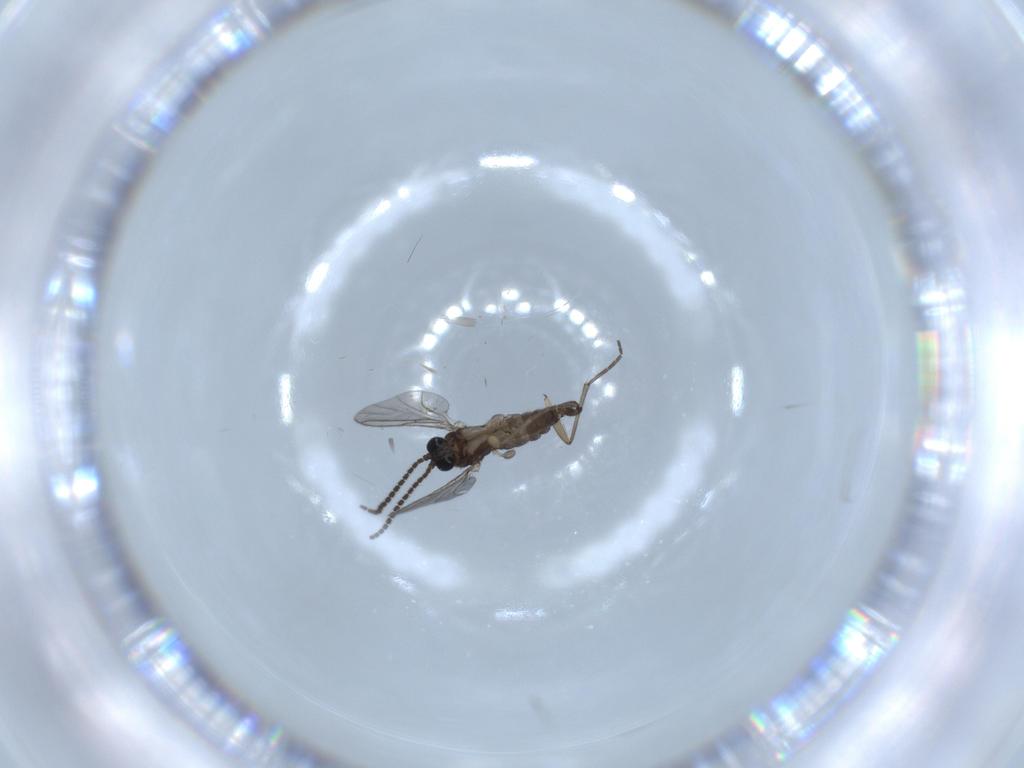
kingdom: Animalia
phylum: Arthropoda
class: Insecta
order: Diptera
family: Sciaridae
